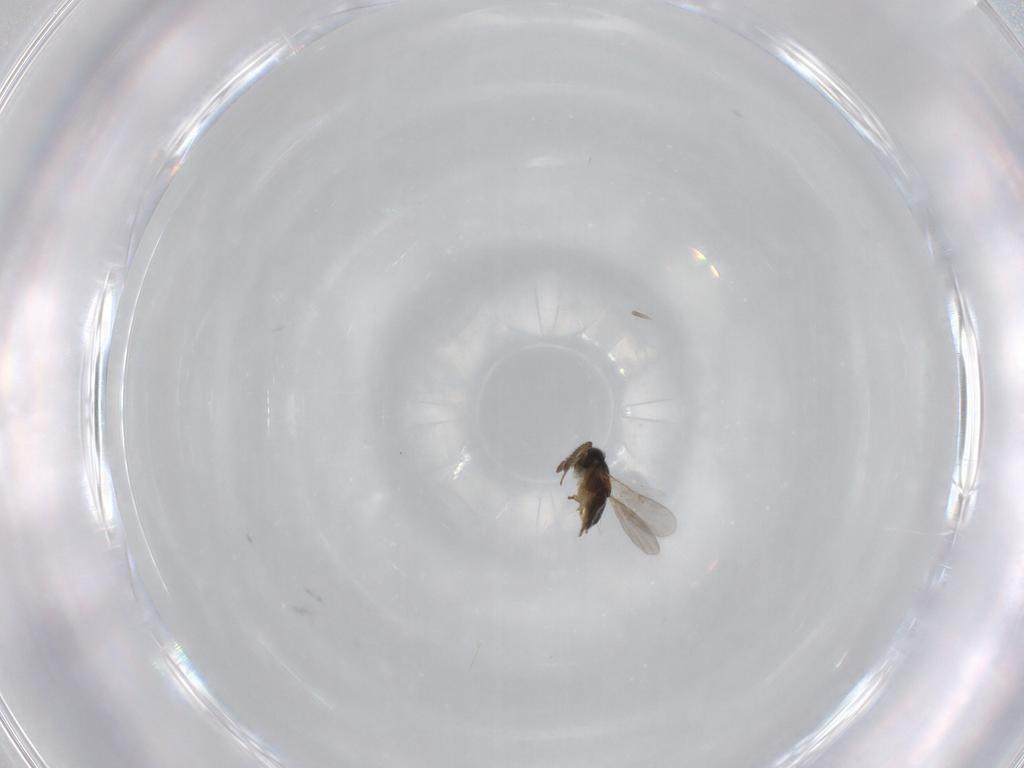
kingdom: Animalia
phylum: Arthropoda
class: Insecta
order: Hymenoptera
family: Encyrtidae
